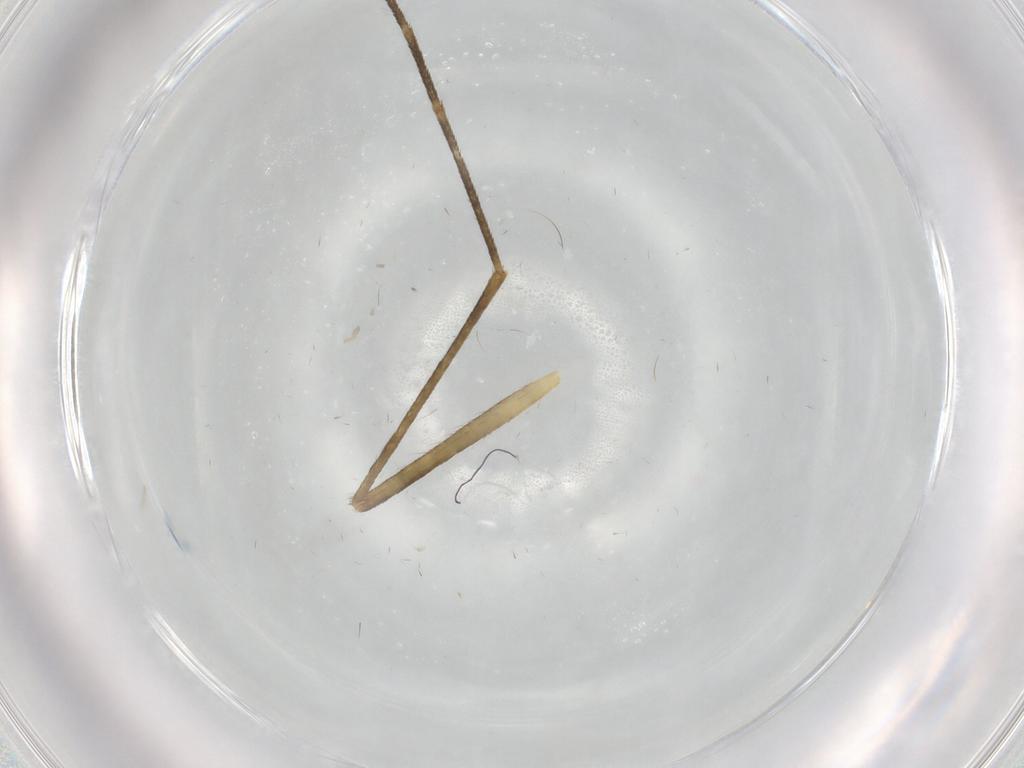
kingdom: Animalia
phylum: Arthropoda
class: Insecta
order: Diptera
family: Culicidae
